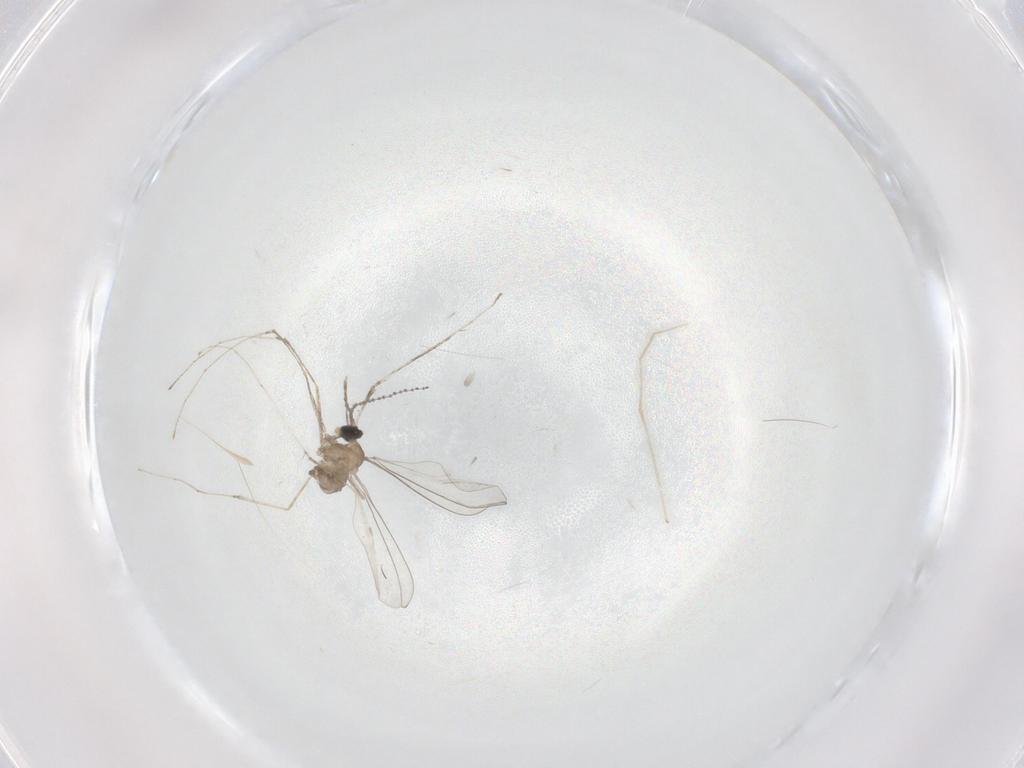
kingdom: Animalia
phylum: Arthropoda
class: Insecta
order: Diptera
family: Cecidomyiidae
